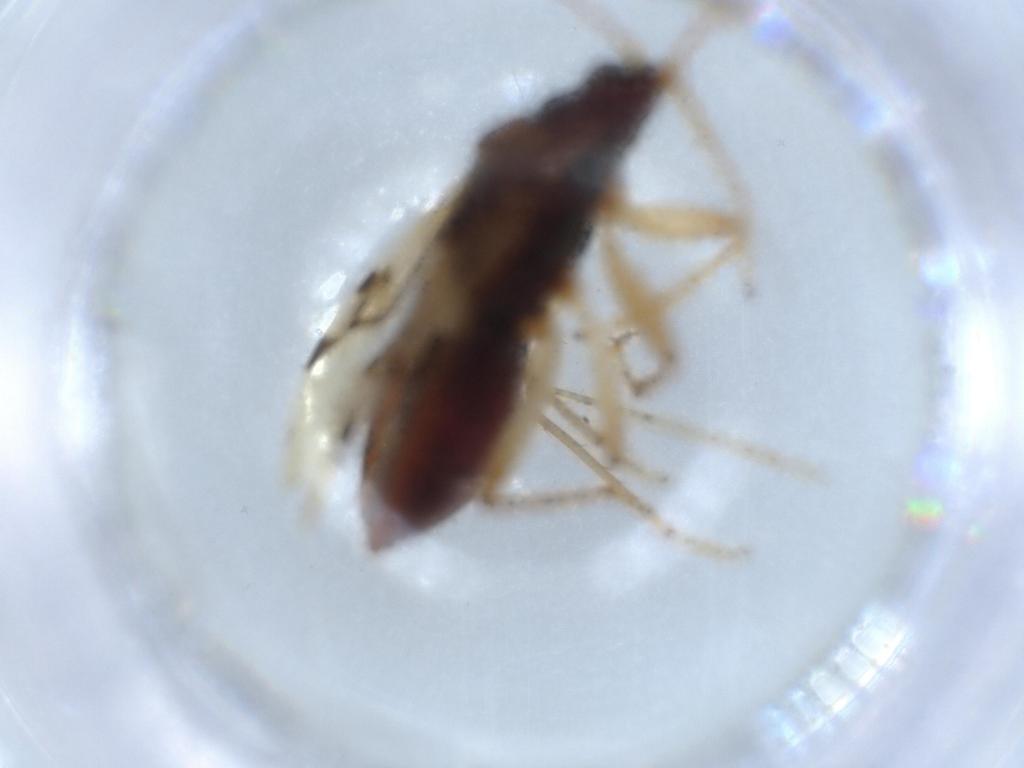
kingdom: Animalia
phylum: Arthropoda
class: Insecta
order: Hemiptera
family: Rhyparochromidae
